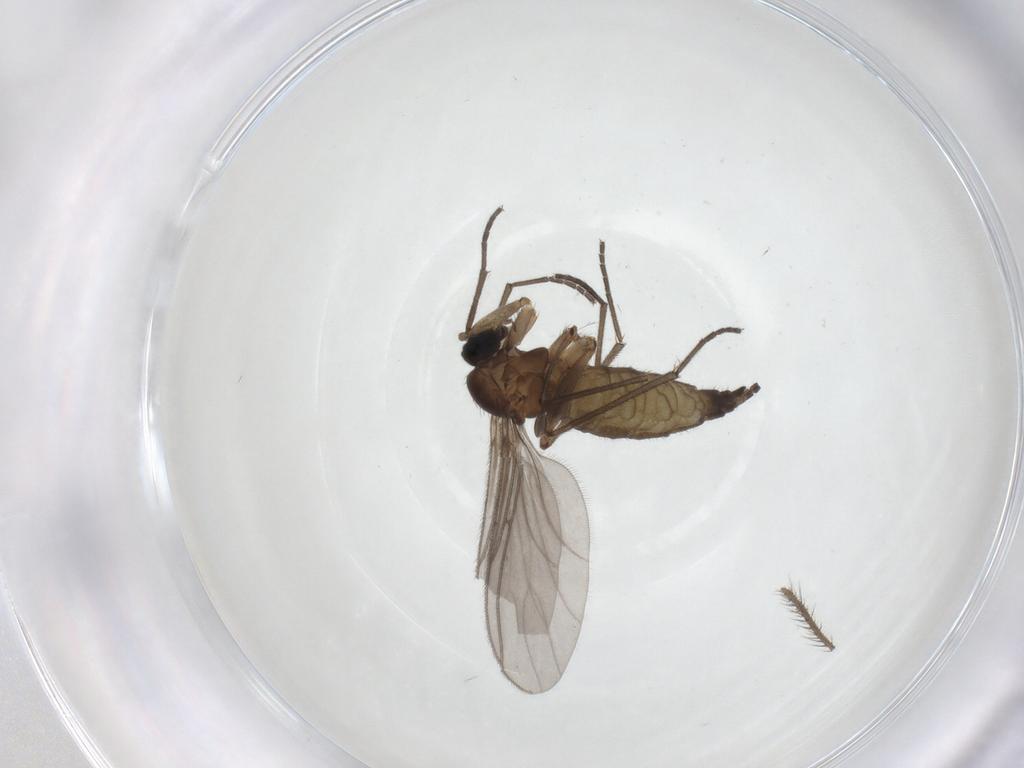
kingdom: Animalia
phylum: Arthropoda
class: Insecta
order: Diptera
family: Sciaridae
